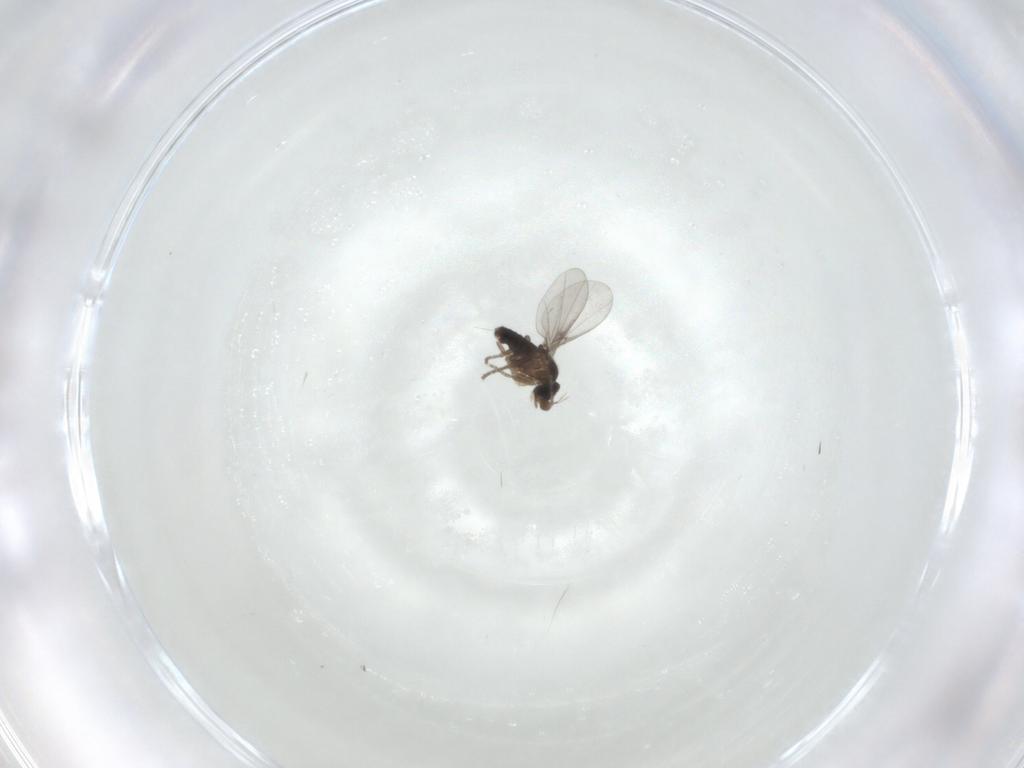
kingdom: Animalia
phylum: Arthropoda
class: Insecta
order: Diptera
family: Phoridae
